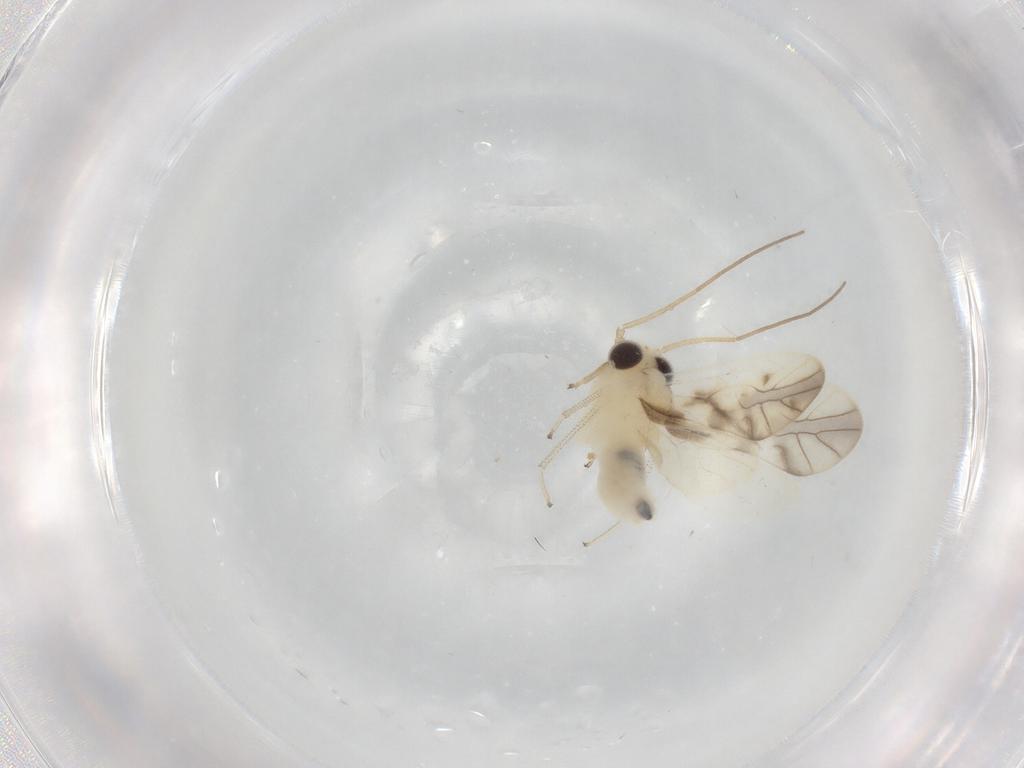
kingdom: Animalia
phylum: Arthropoda
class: Insecta
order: Psocodea
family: Caeciliusidae
